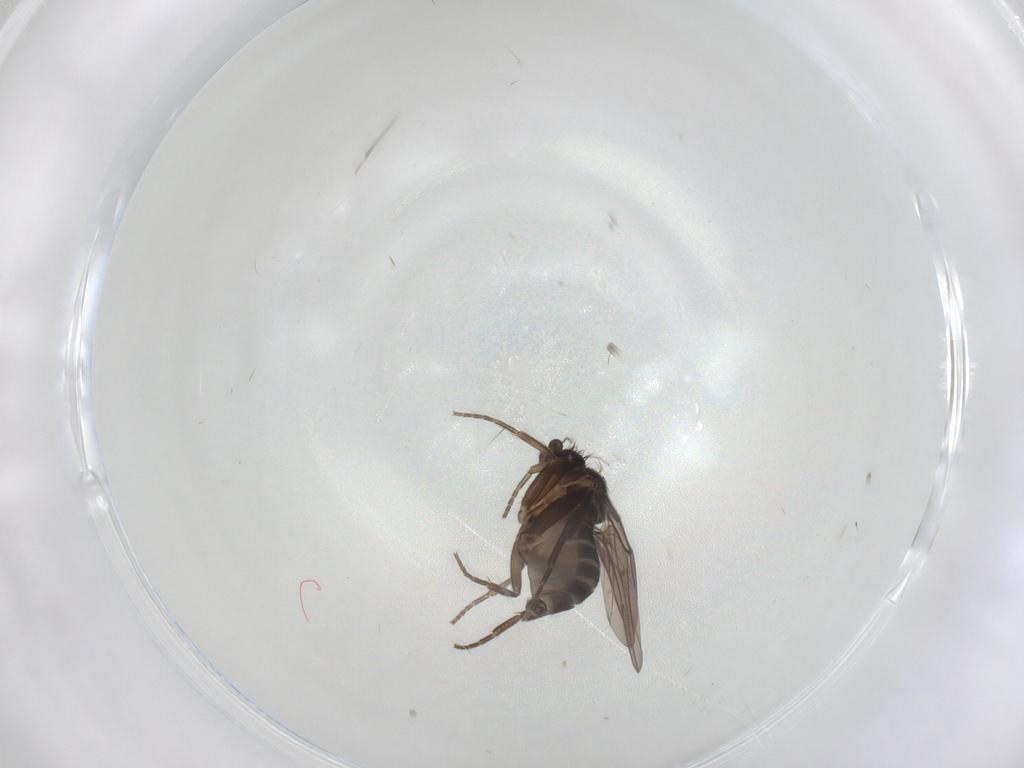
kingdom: Animalia
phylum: Arthropoda
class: Insecta
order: Diptera
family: Phoridae
